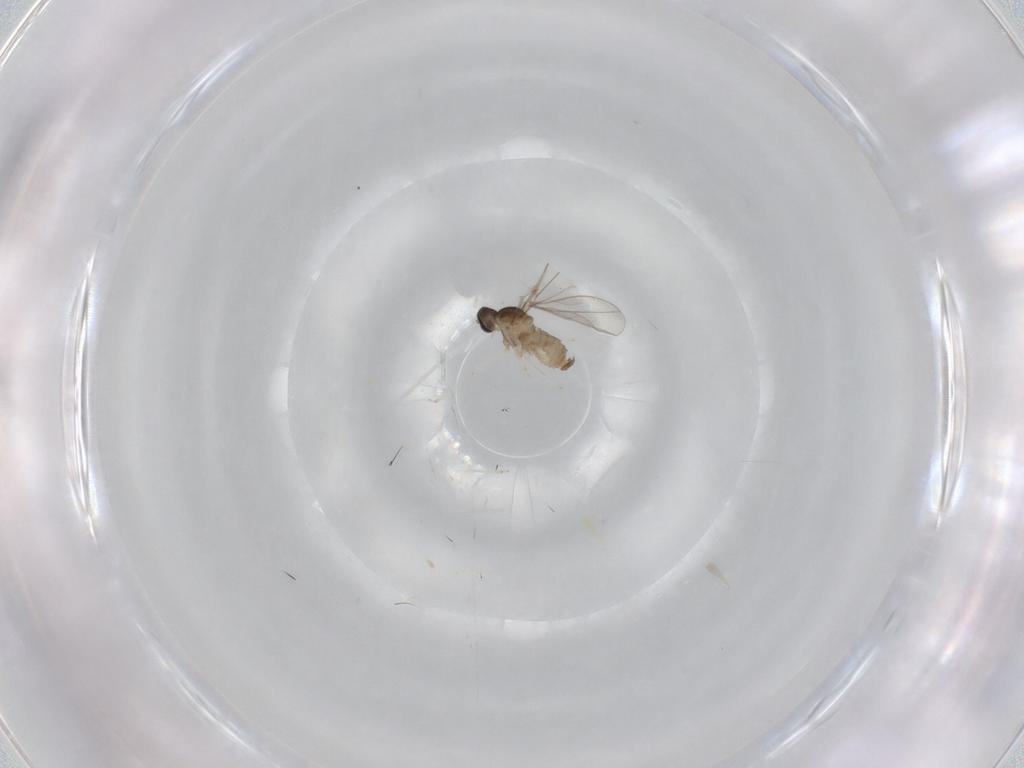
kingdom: Animalia
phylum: Arthropoda
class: Insecta
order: Diptera
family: Cecidomyiidae
